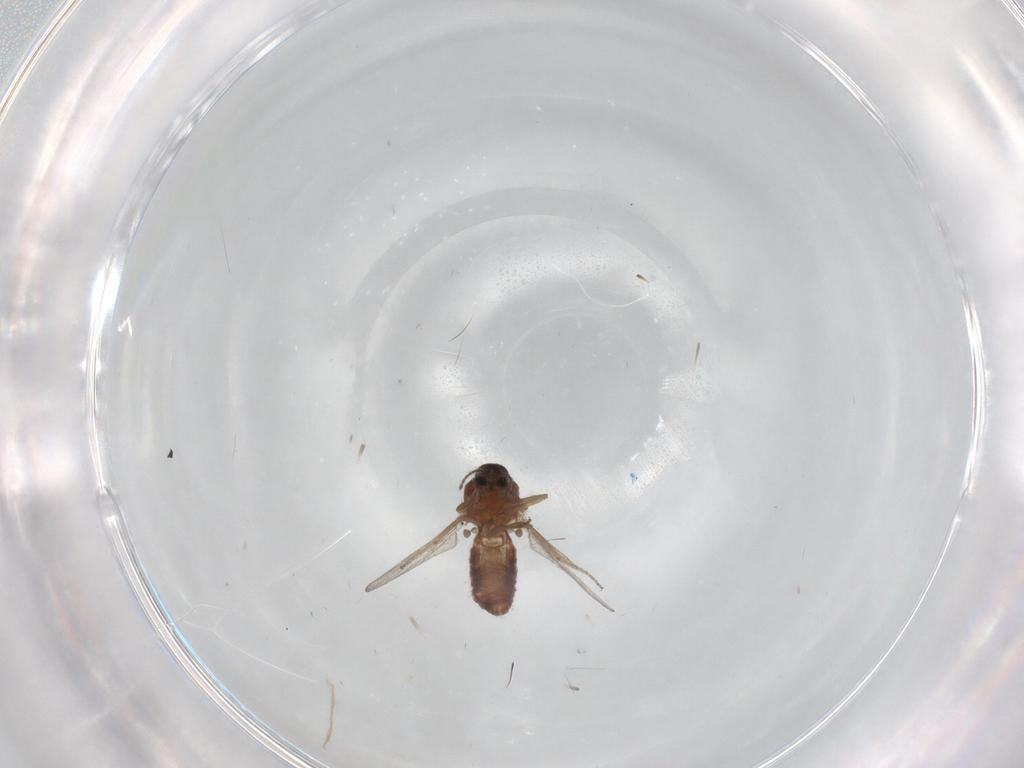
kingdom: Animalia
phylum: Arthropoda
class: Insecta
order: Diptera
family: Ceratopogonidae
